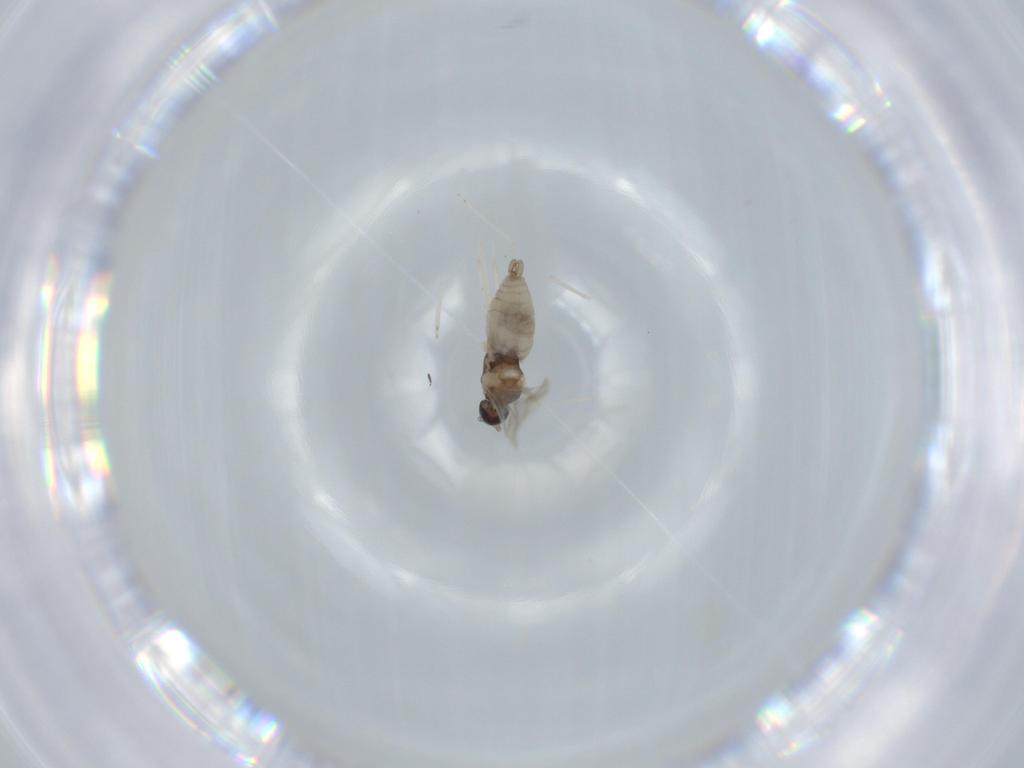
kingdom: Animalia
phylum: Arthropoda
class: Insecta
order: Diptera
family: Cecidomyiidae
